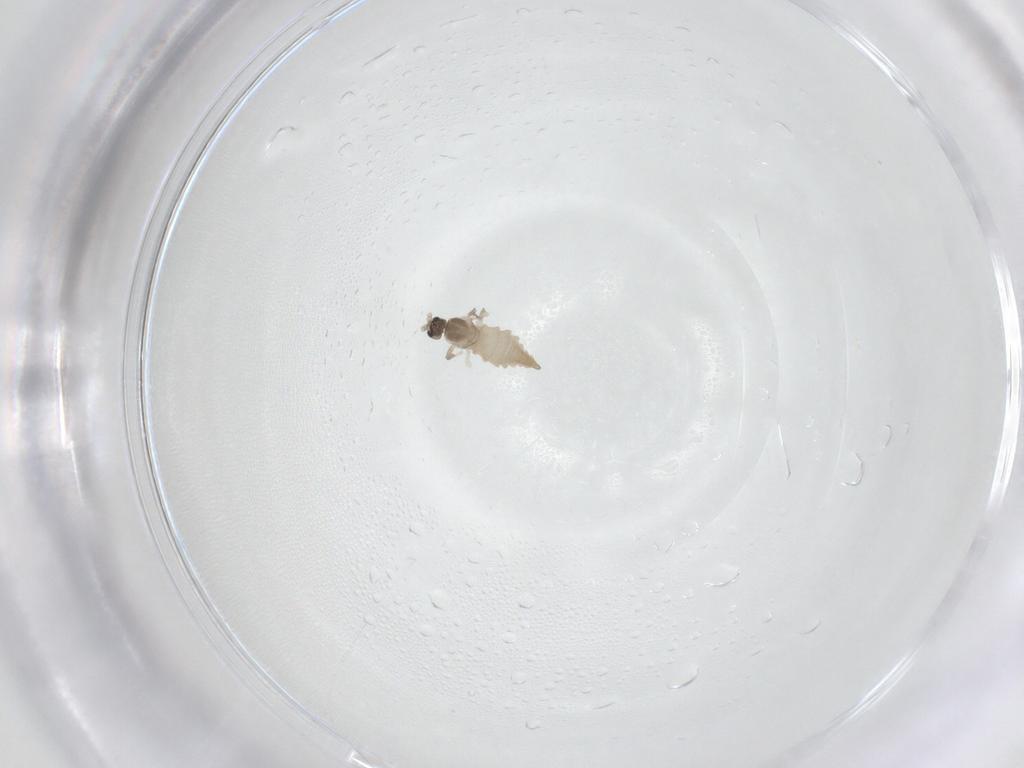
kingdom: Animalia
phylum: Arthropoda
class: Insecta
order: Diptera
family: Cecidomyiidae
